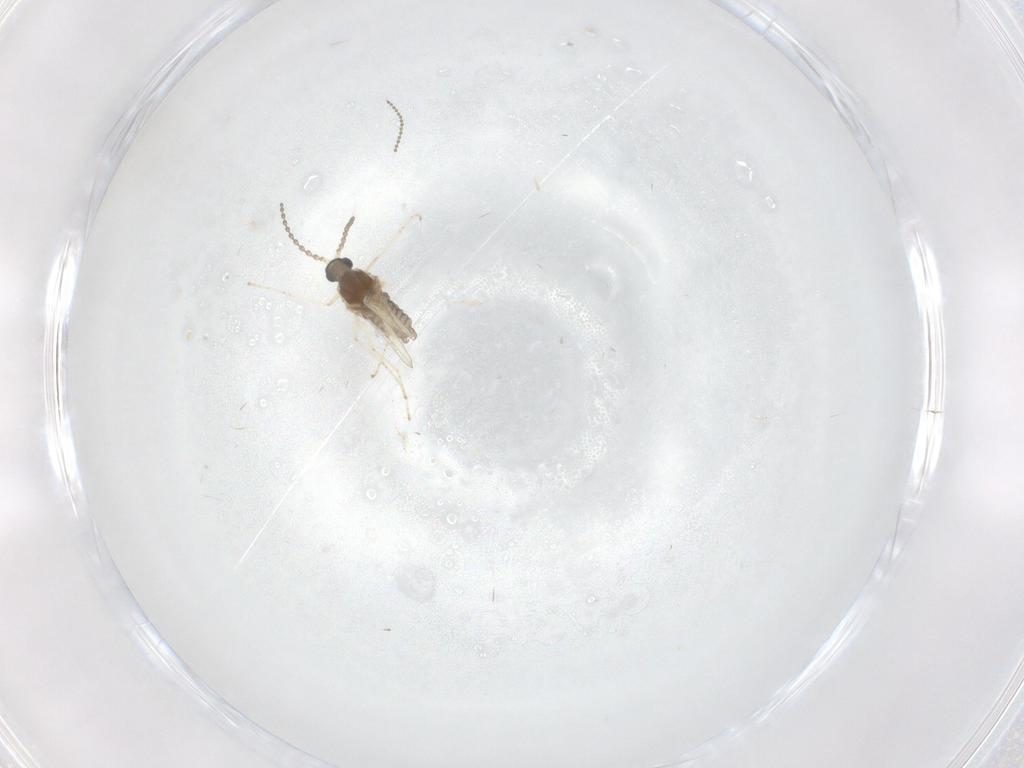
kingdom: Animalia
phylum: Arthropoda
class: Insecta
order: Diptera
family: Cecidomyiidae
